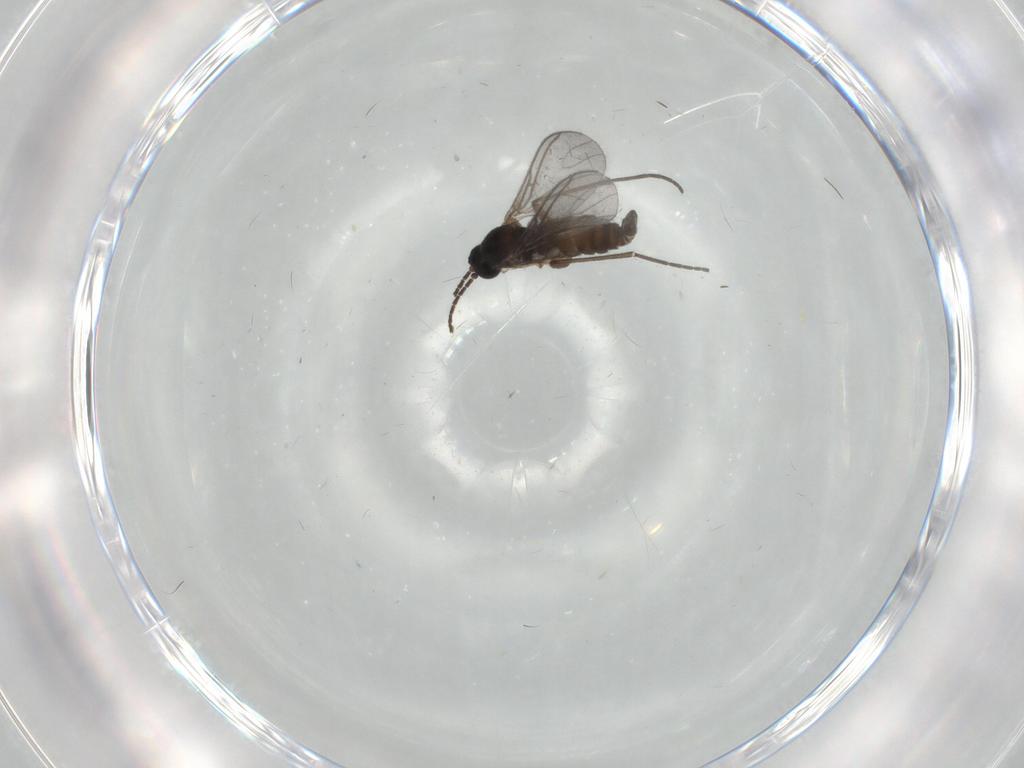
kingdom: Animalia
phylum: Arthropoda
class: Insecta
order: Diptera
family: Sciaridae
